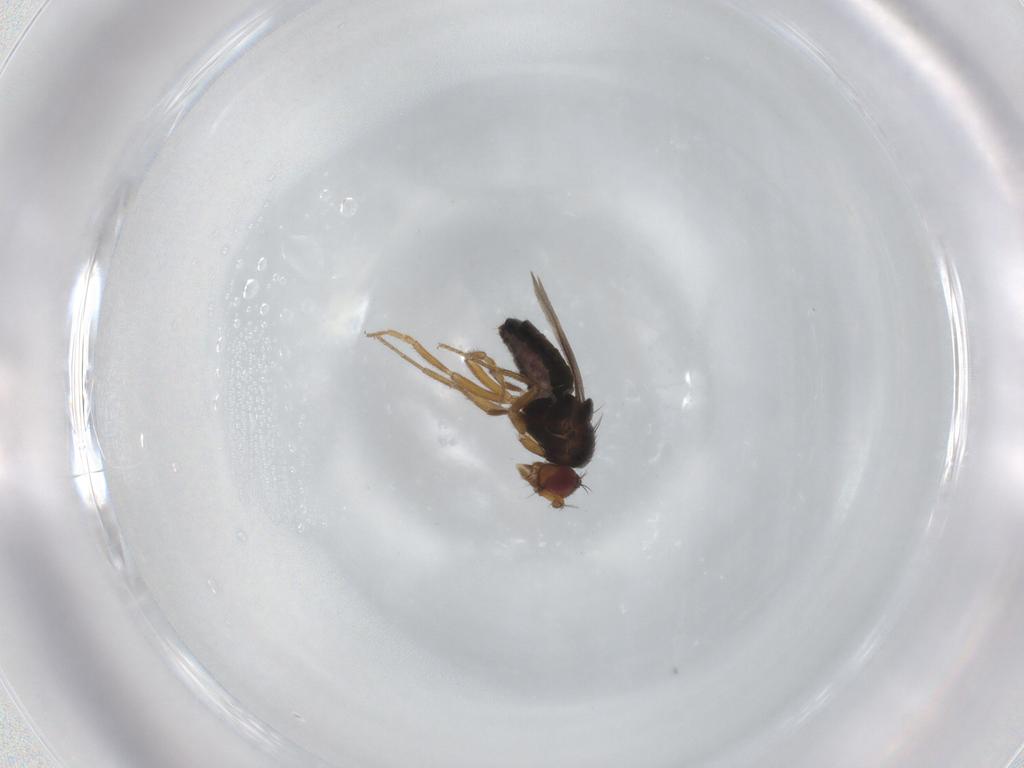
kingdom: Animalia
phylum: Arthropoda
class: Insecta
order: Diptera
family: Sphaeroceridae
